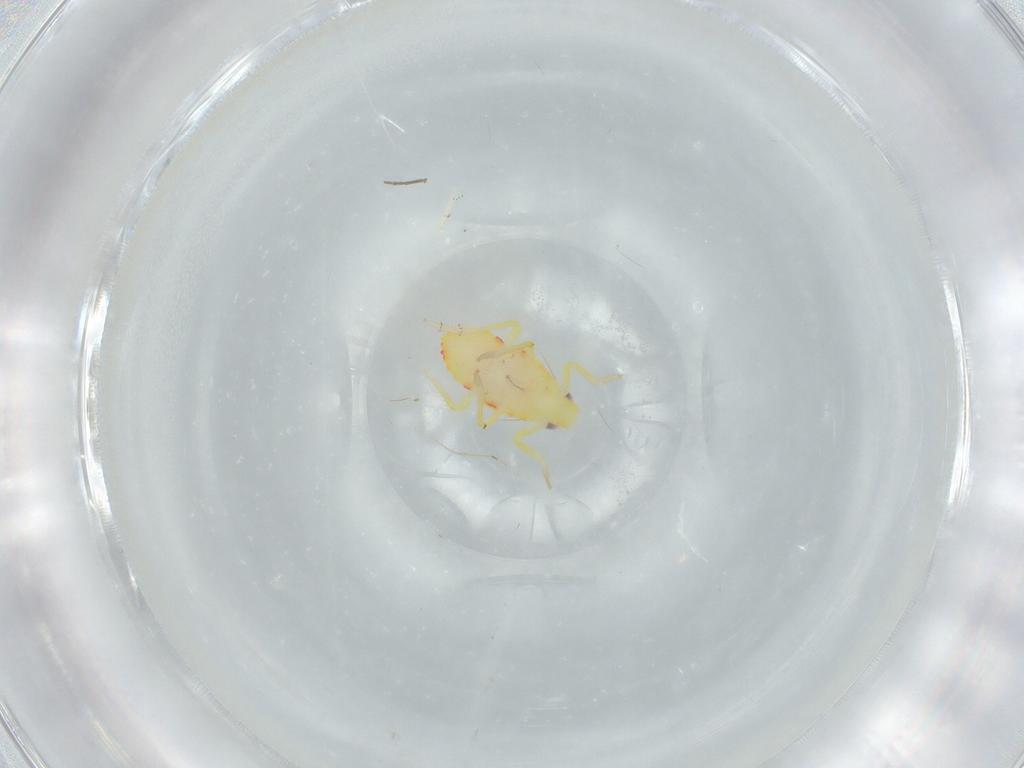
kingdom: Animalia
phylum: Arthropoda
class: Insecta
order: Hemiptera
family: Tropiduchidae
